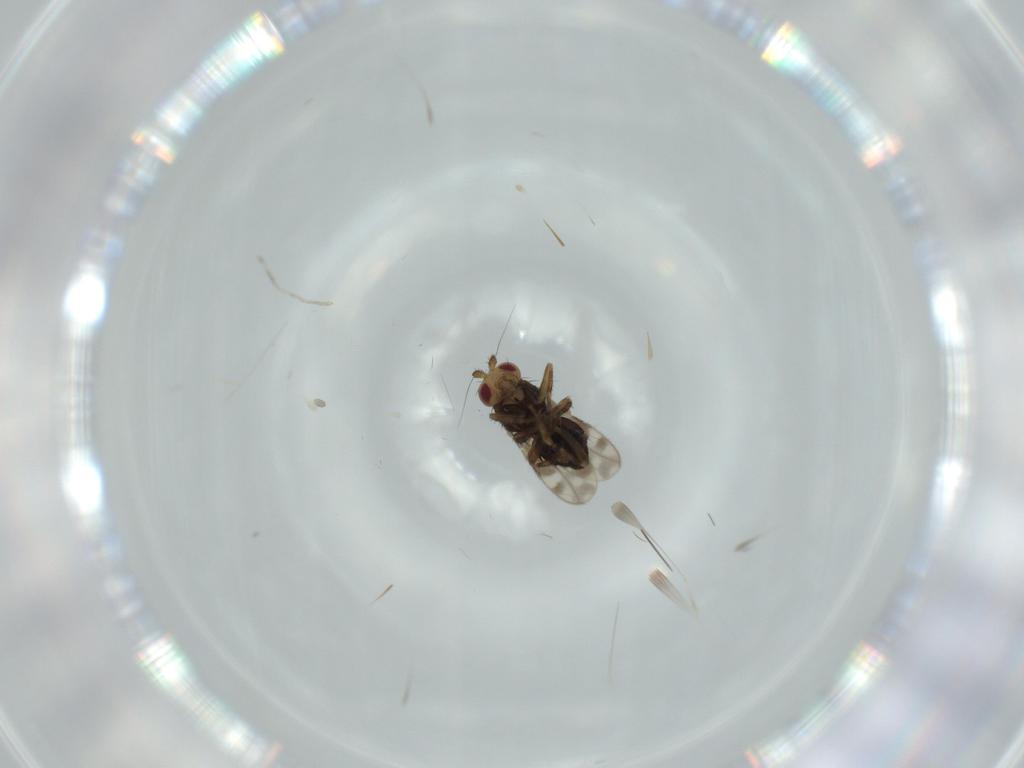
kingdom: Animalia
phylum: Arthropoda
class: Insecta
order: Diptera
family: Sphaeroceridae
